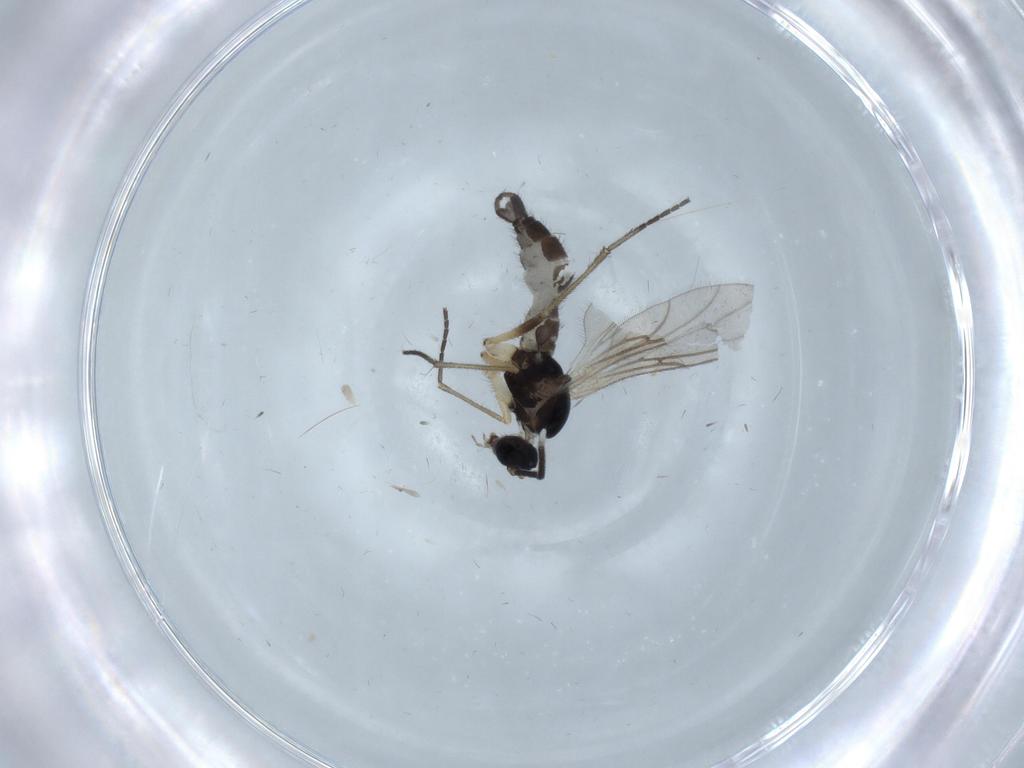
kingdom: Animalia
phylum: Arthropoda
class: Insecta
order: Diptera
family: Sciaridae
